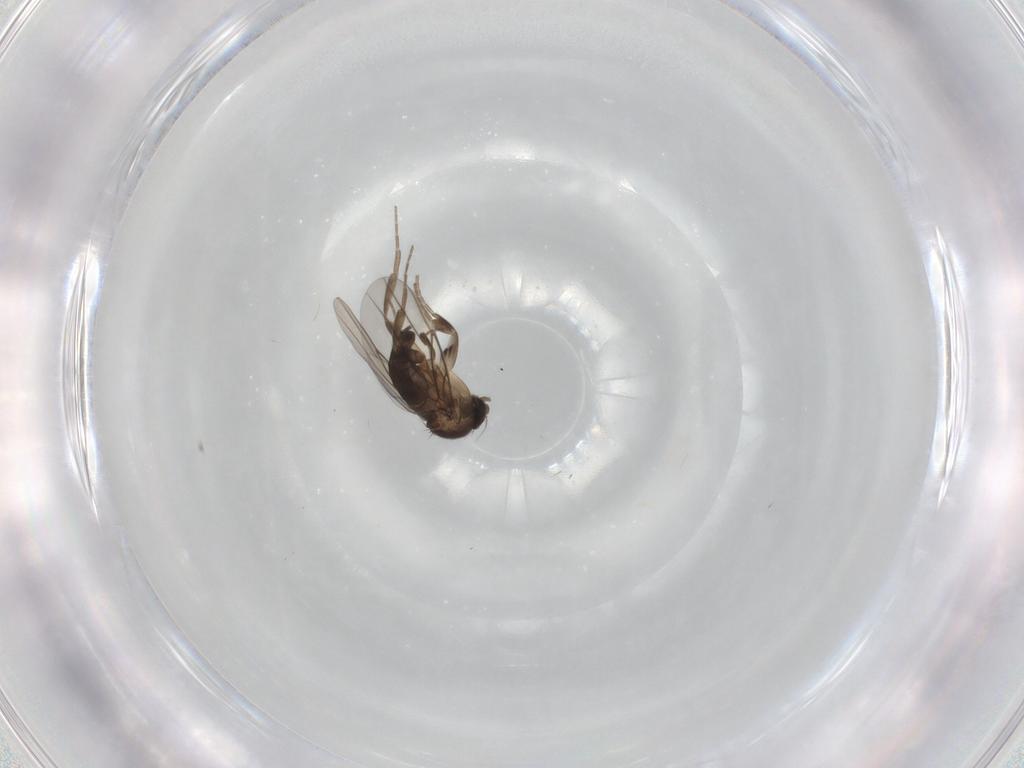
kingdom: Animalia
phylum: Arthropoda
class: Insecta
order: Diptera
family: Phoridae
